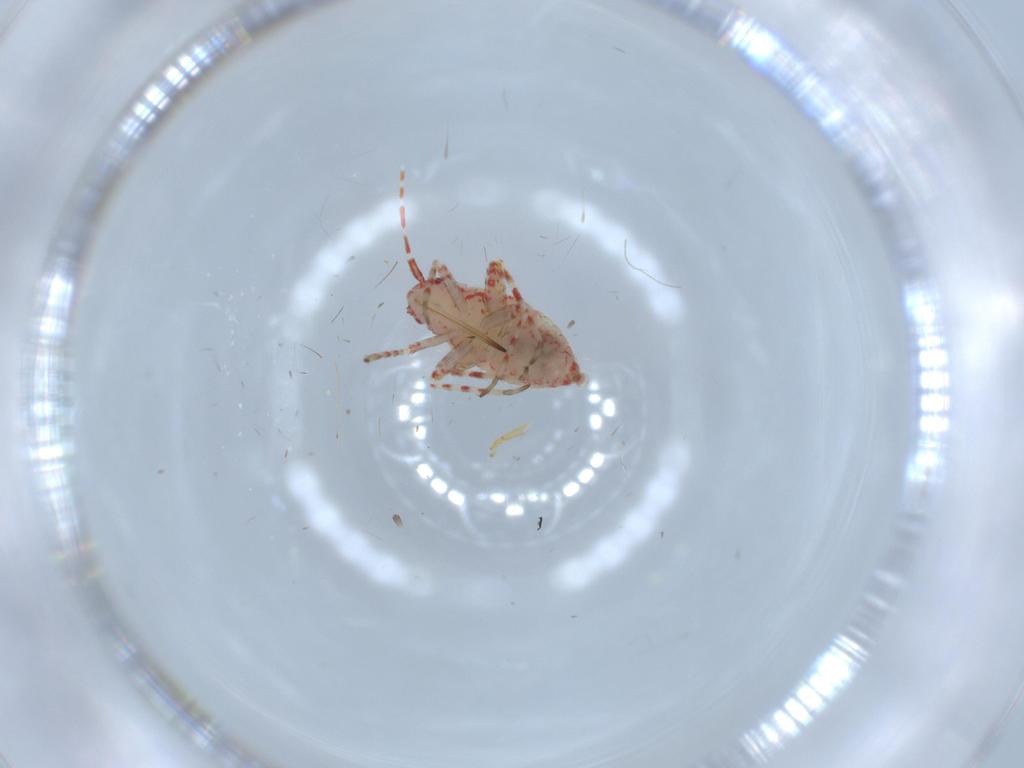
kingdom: Animalia
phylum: Arthropoda
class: Insecta
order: Hemiptera
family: Miridae
